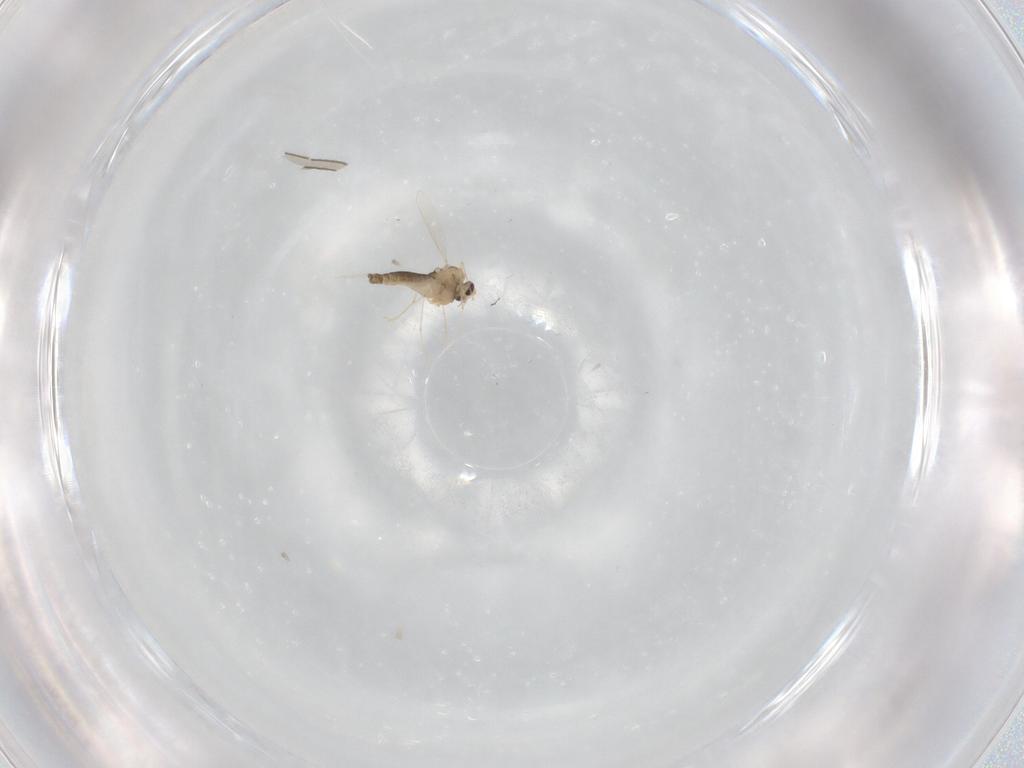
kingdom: Animalia
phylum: Arthropoda
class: Insecta
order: Diptera
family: Chironomidae
